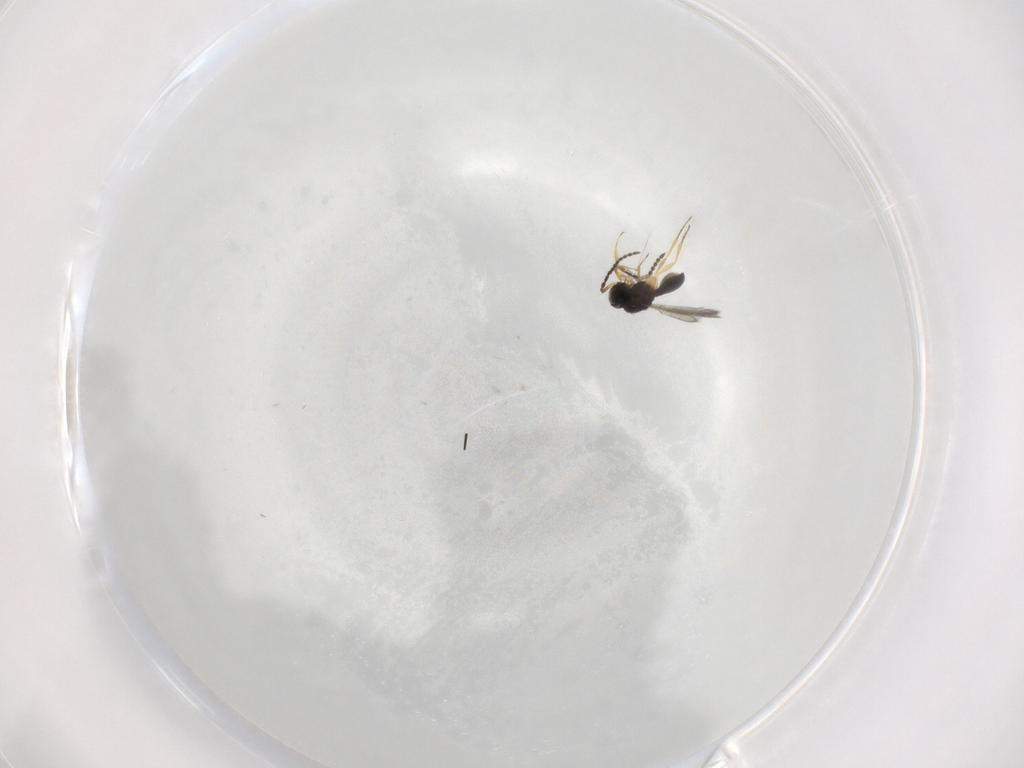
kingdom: Animalia
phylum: Arthropoda
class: Insecta
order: Hymenoptera
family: Scelionidae
